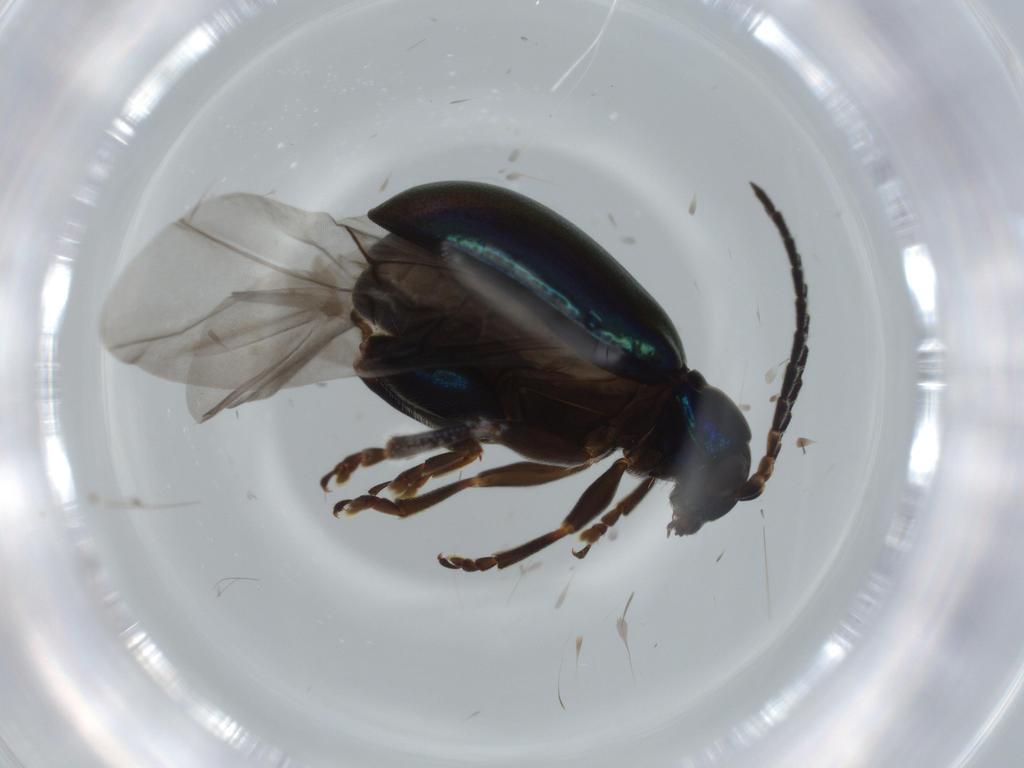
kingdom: Animalia
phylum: Arthropoda
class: Insecta
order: Coleoptera
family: Chrysomelidae
